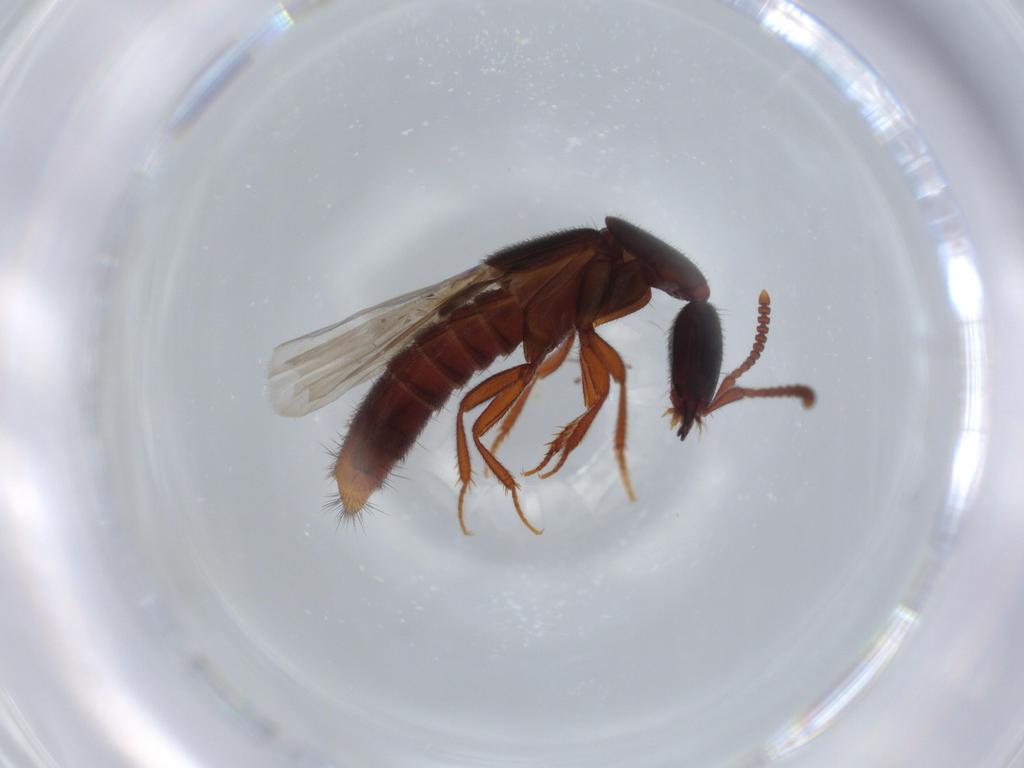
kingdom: Animalia
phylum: Arthropoda
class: Insecta
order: Coleoptera
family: Staphylinidae
